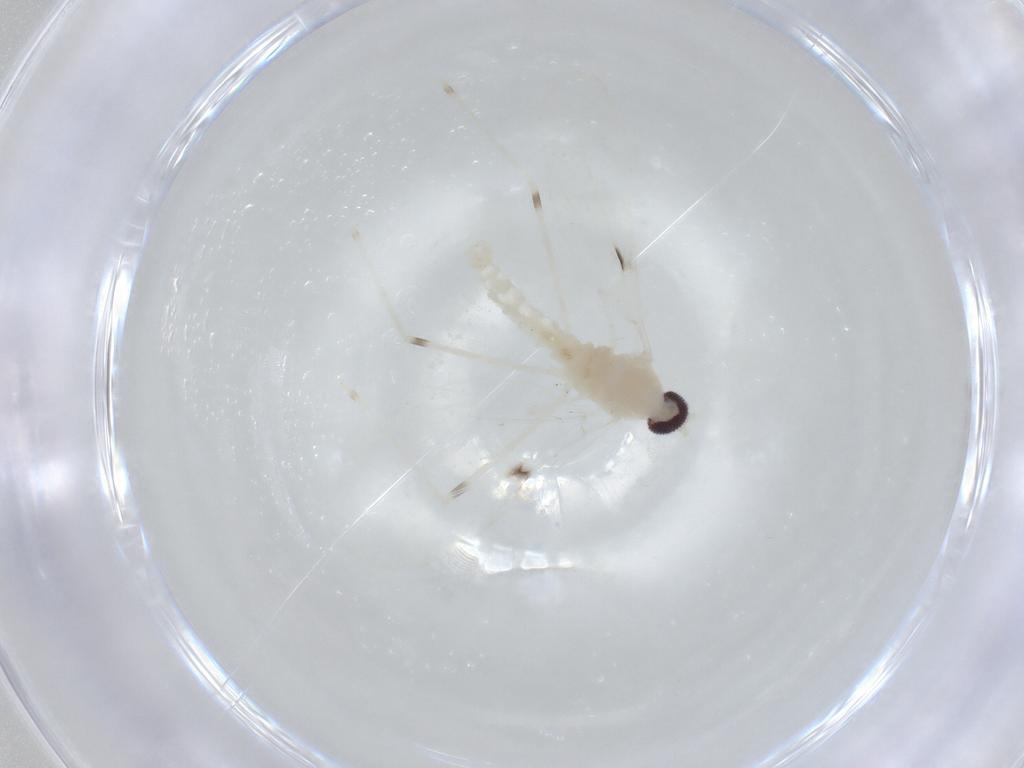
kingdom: Animalia
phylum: Arthropoda
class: Insecta
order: Diptera
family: Cecidomyiidae
